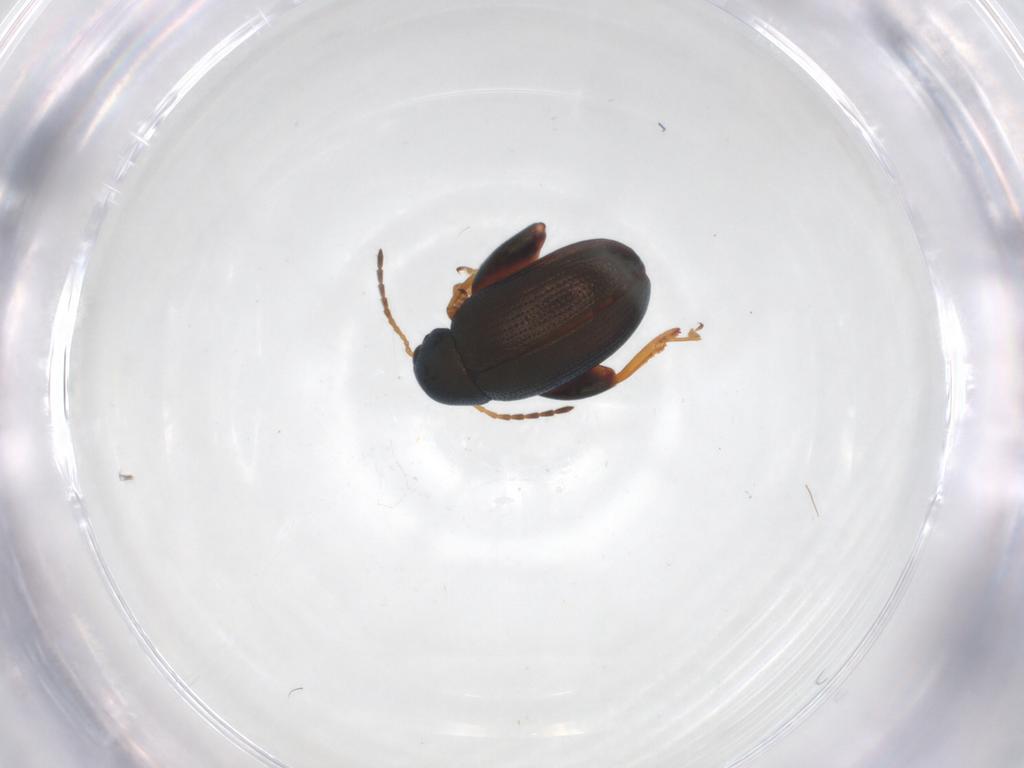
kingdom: Animalia
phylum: Arthropoda
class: Insecta
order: Coleoptera
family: Chrysomelidae
